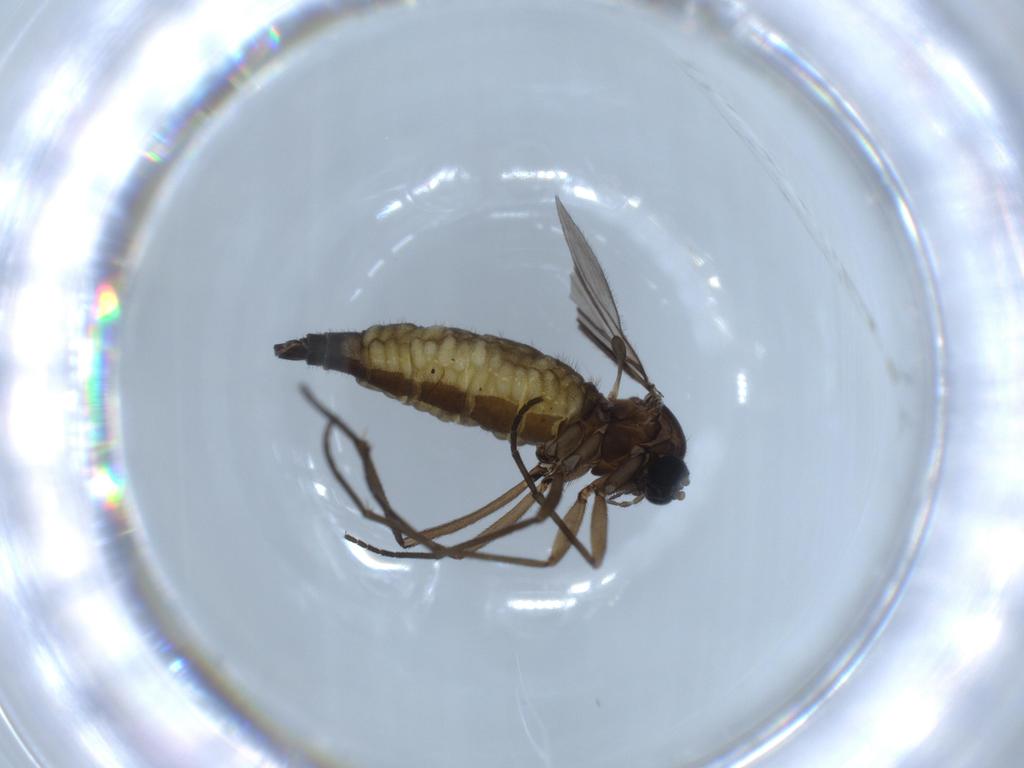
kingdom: Animalia
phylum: Arthropoda
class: Insecta
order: Diptera
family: Sciaridae
